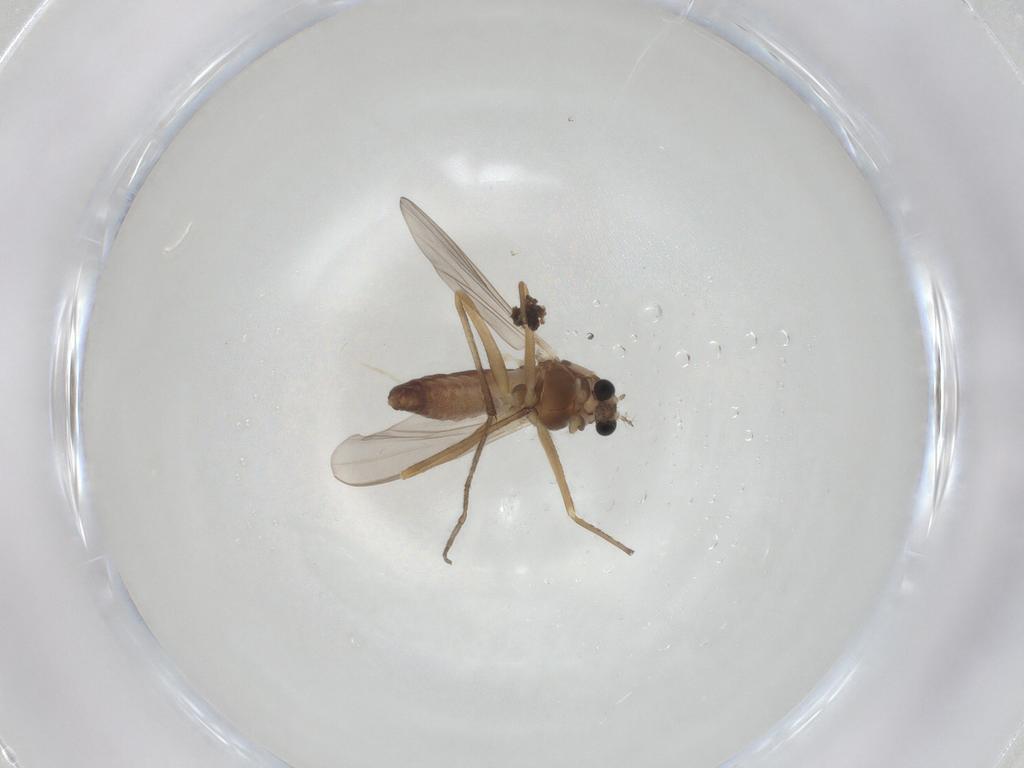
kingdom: Animalia
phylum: Arthropoda
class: Insecta
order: Diptera
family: Chironomidae
